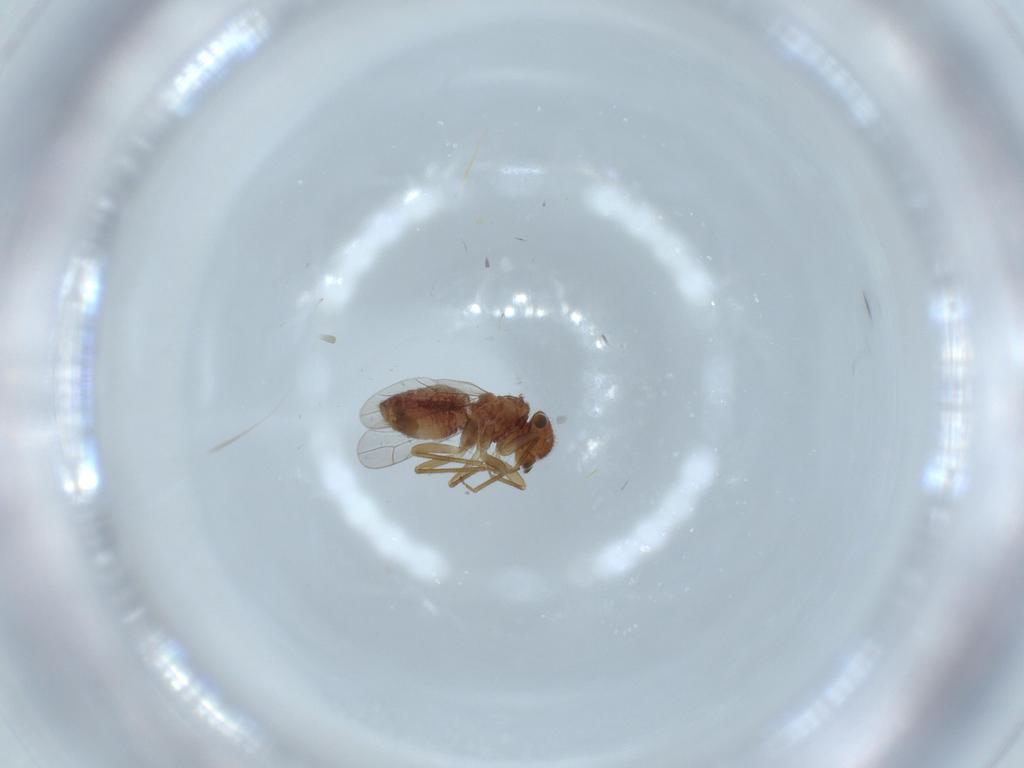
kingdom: Animalia
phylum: Arthropoda
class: Insecta
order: Psocodea
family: Ectopsocidae
